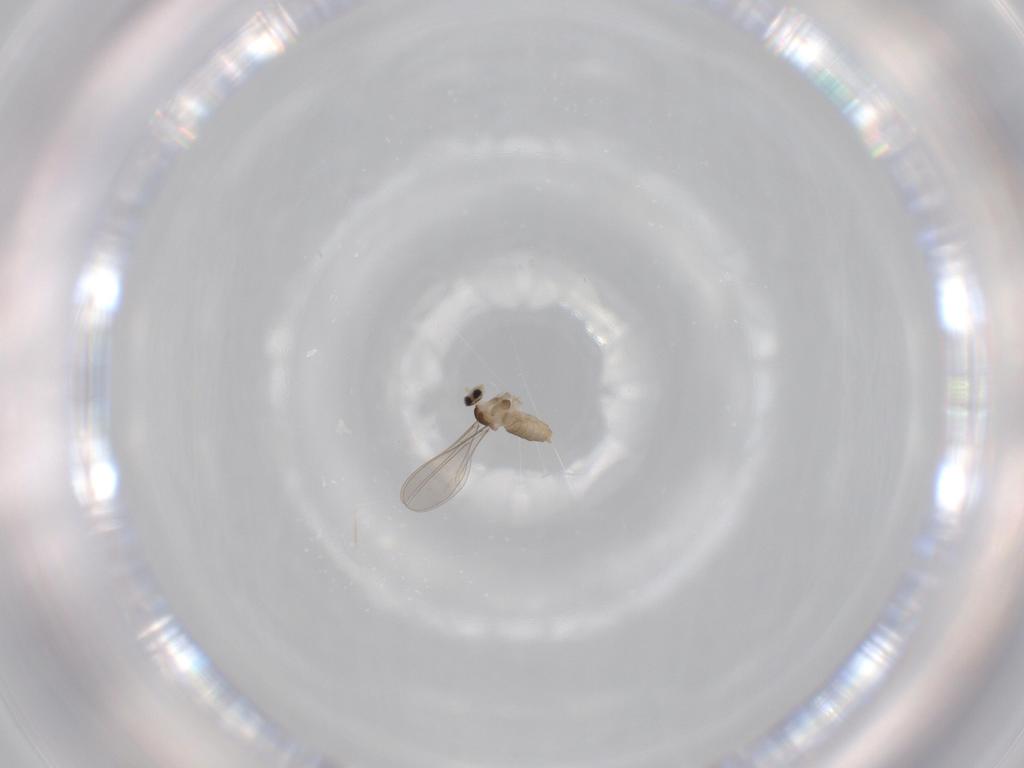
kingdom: Animalia
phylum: Arthropoda
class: Insecta
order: Diptera
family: Cecidomyiidae
